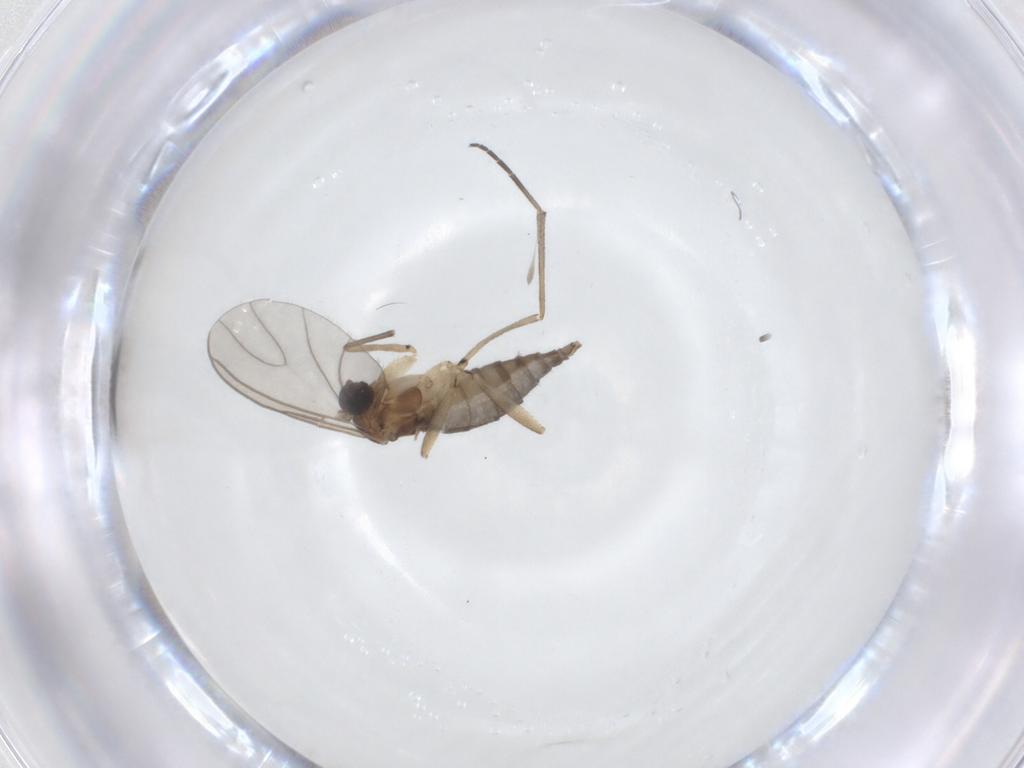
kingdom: Animalia
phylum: Arthropoda
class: Insecta
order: Diptera
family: Sciaridae
